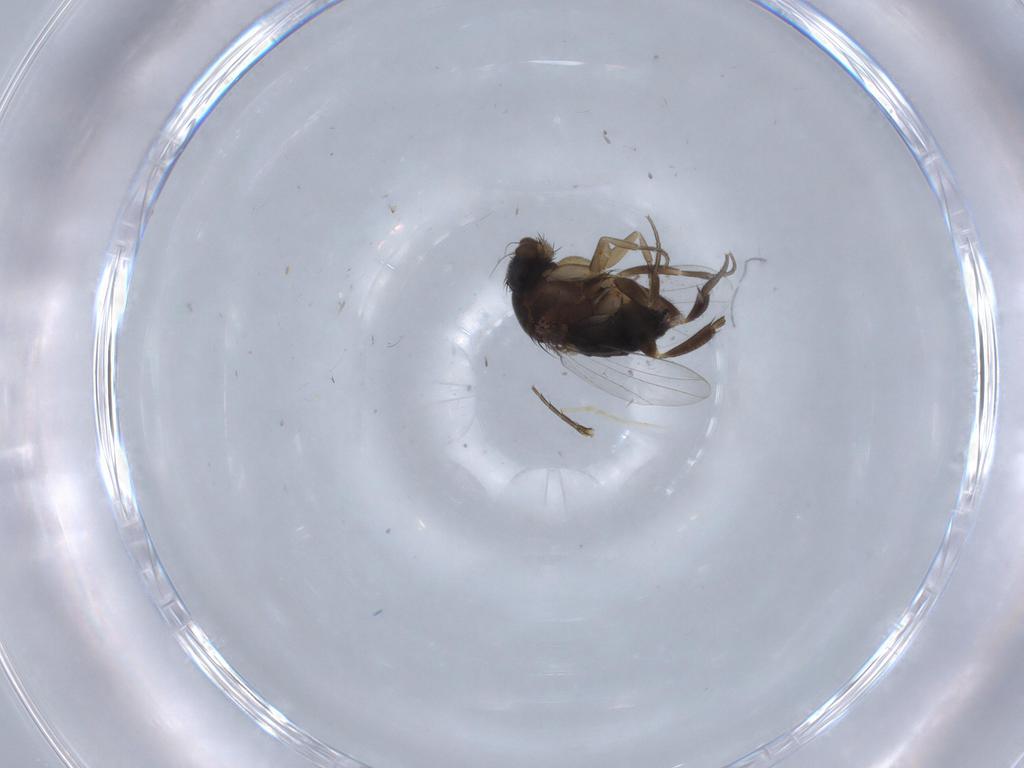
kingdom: Animalia
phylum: Arthropoda
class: Insecta
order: Diptera
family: Phoridae
